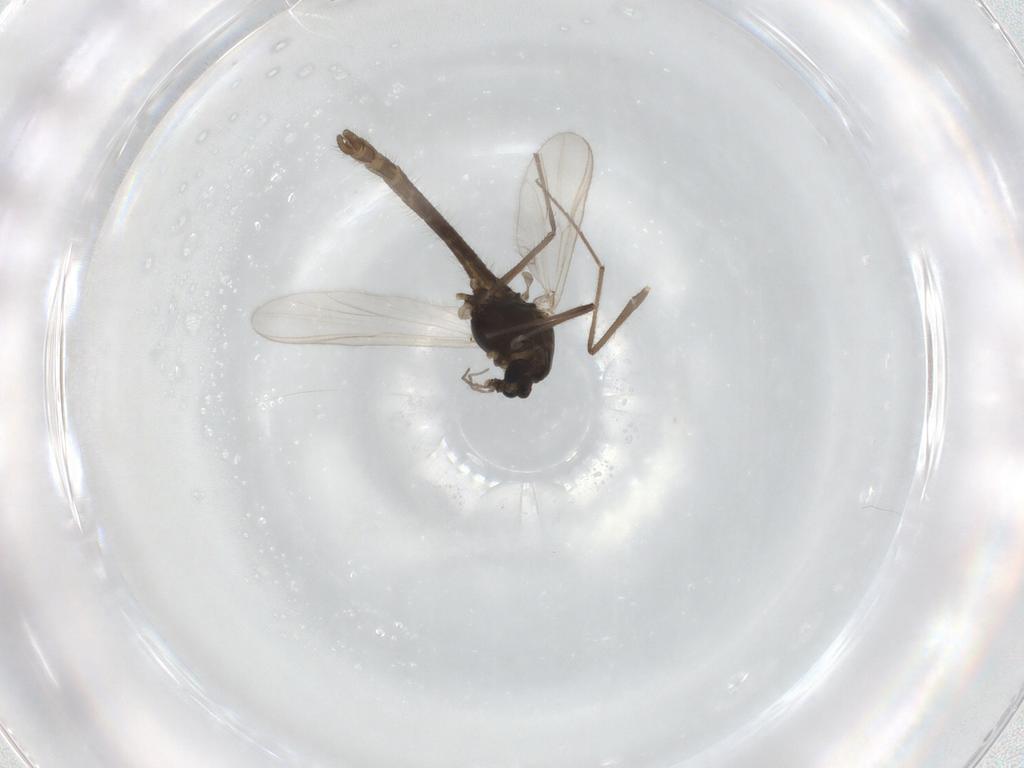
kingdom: Animalia
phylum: Arthropoda
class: Insecta
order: Diptera
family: Chironomidae
